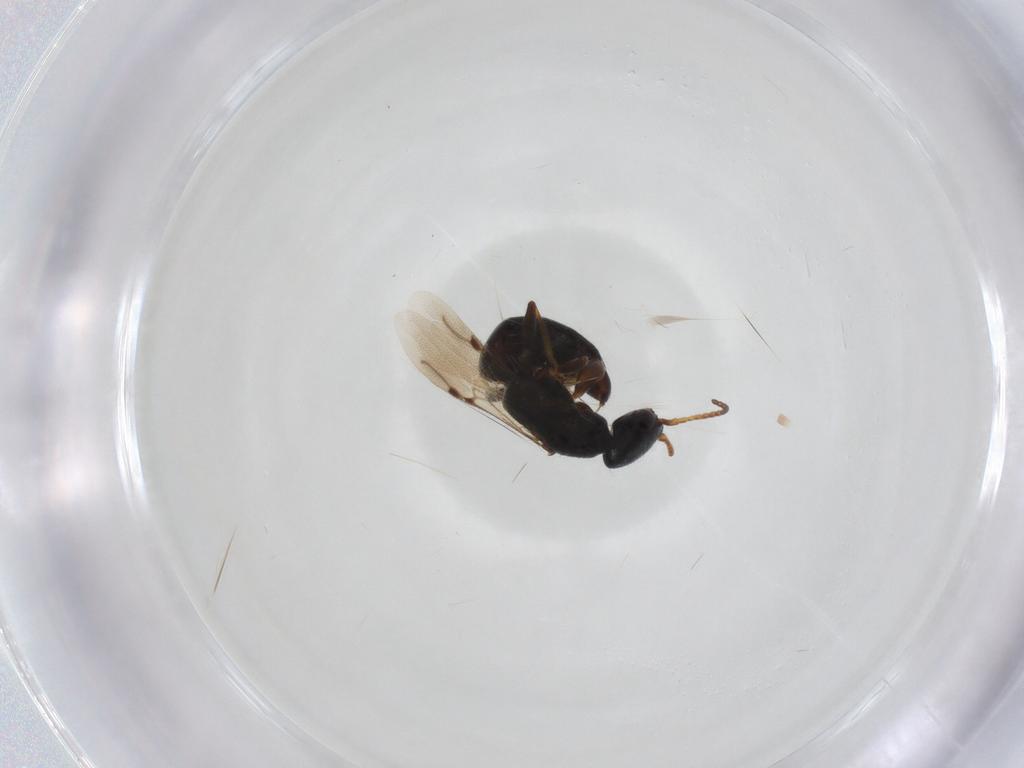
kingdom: Animalia
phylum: Arthropoda
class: Insecta
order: Hymenoptera
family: Bethylidae
